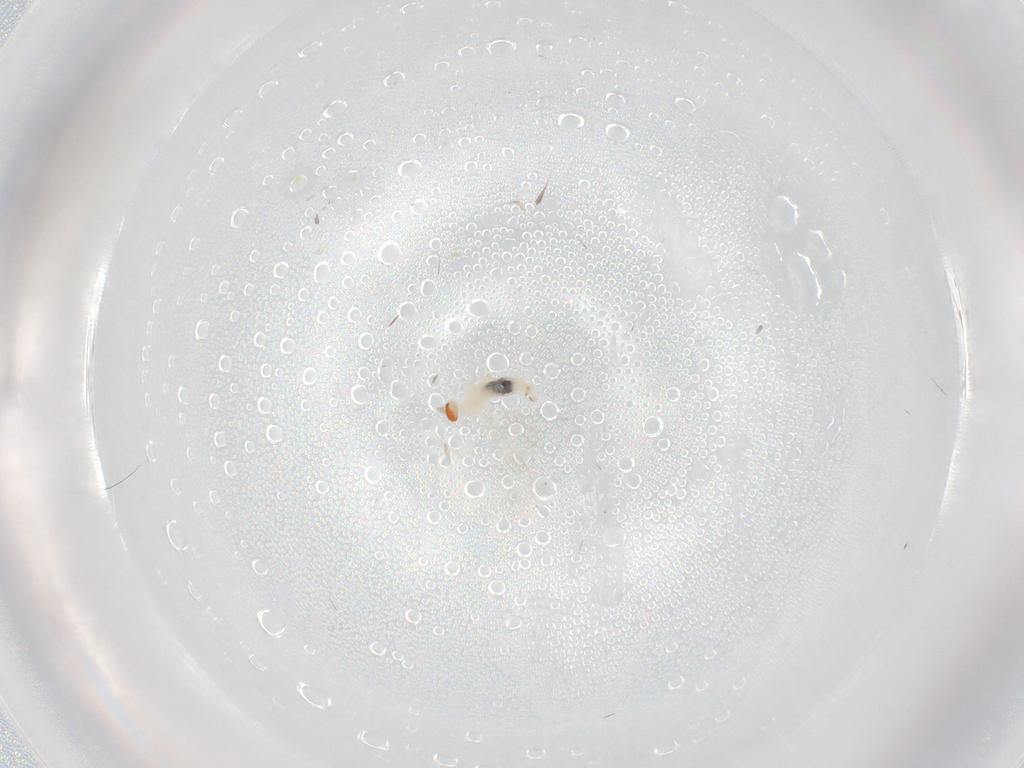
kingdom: Animalia
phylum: Arthropoda
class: Insecta
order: Diptera
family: Cecidomyiidae
